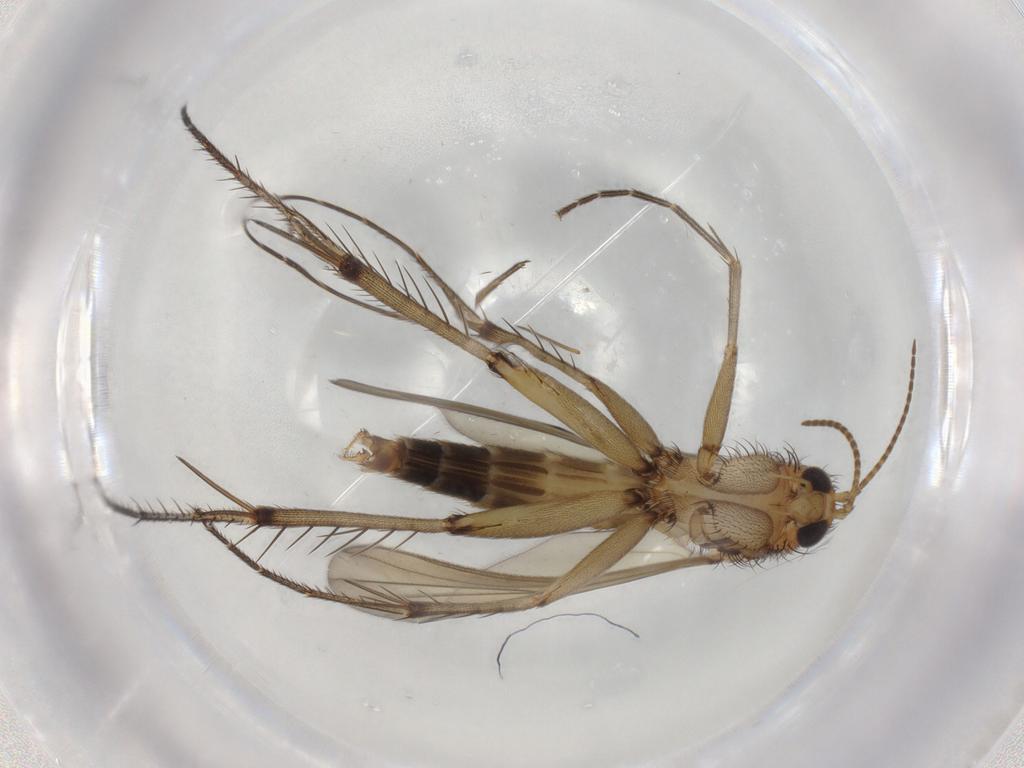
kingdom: Animalia
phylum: Arthropoda
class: Insecta
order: Diptera
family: Mycetophilidae
